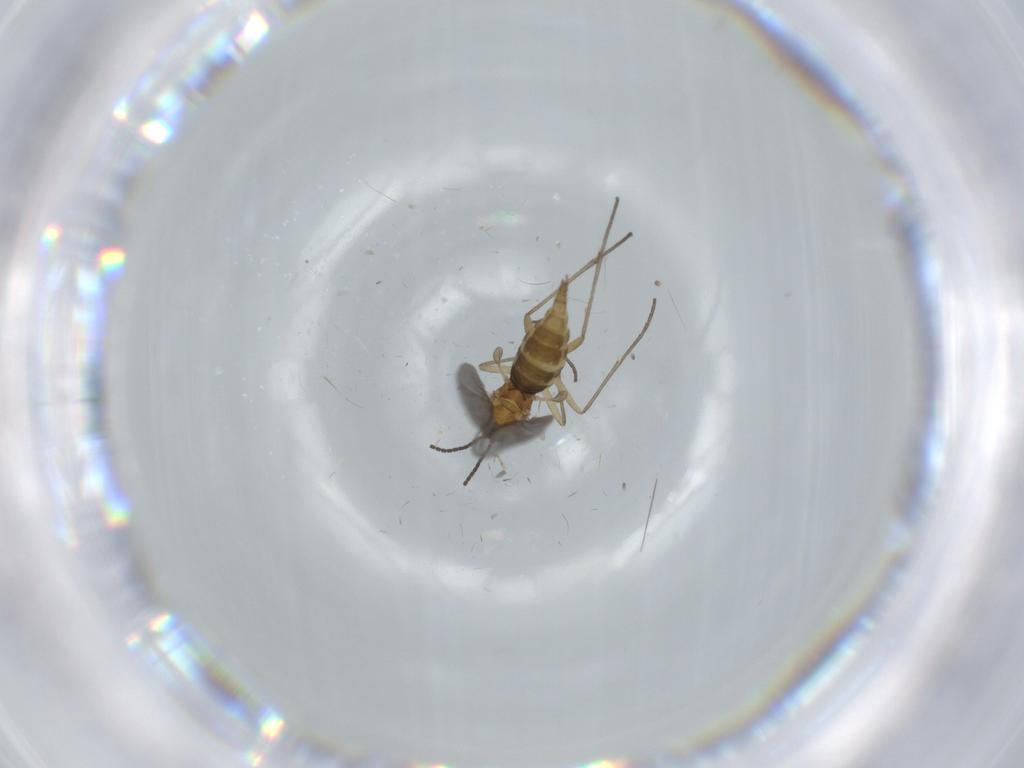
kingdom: Animalia
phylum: Arthropoda
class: Insecta
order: Diptera
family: Sciaridae
